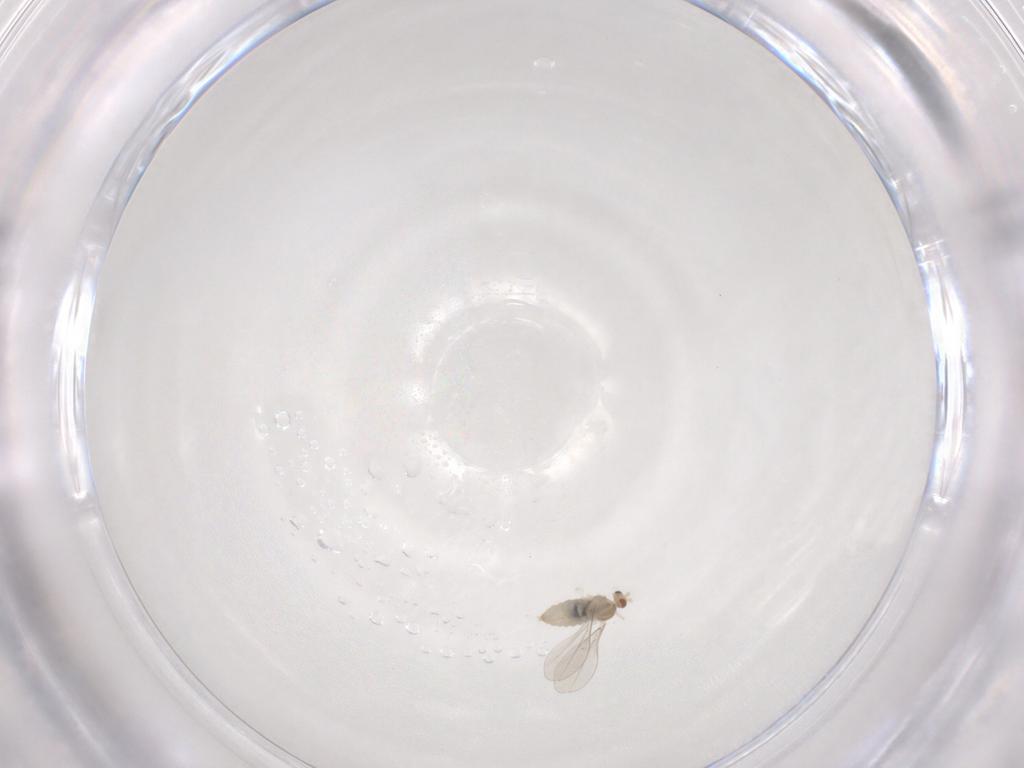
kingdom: Animalia
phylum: Arthropoda
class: Insecta
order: Diptera
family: Cecidomyiidae
